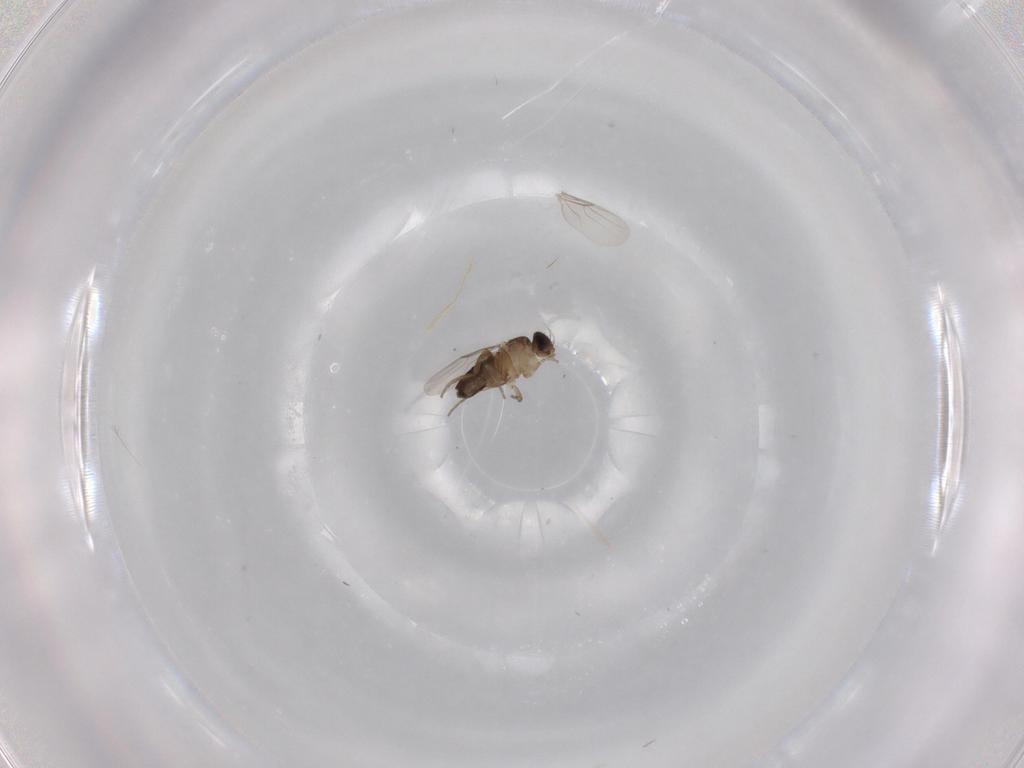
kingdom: Animalia
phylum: Arthropoda
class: Insecta
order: Diptera
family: Phoridae
